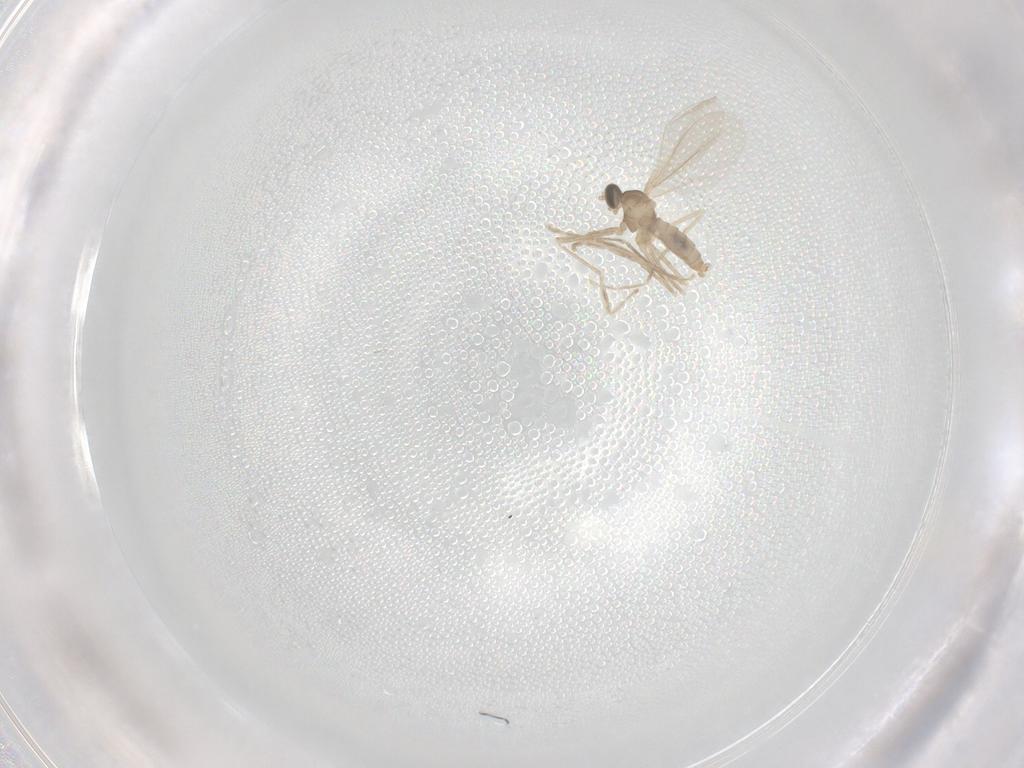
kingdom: Animalia
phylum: Arthropoda
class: Insecta
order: Diptera
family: Cecidomyiidae
